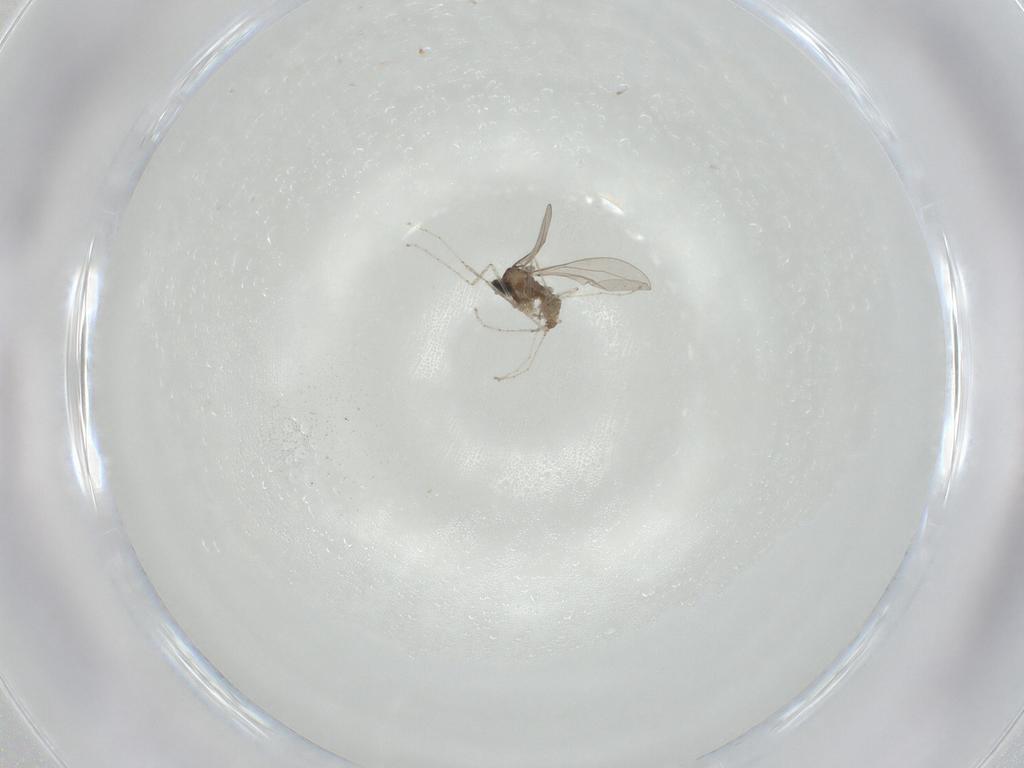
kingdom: Animalia
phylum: Arthropoda
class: Insecta
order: Diptera
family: Cecidomyiidae
